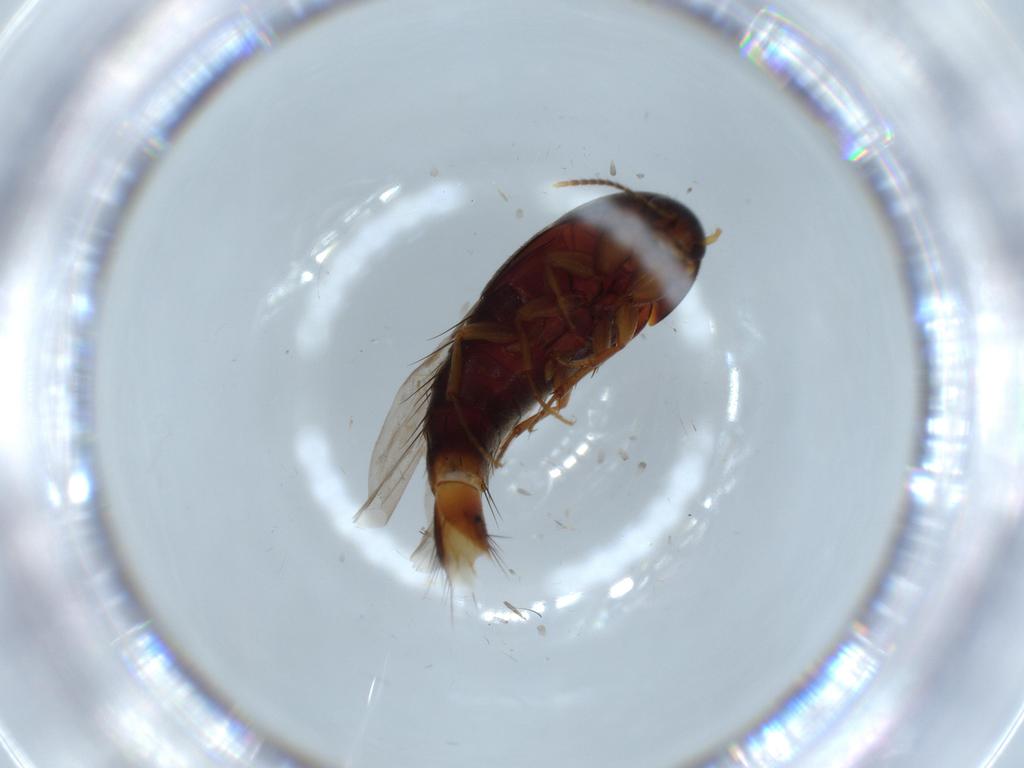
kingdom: Animalia
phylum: Arthropoda
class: Insecta
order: Coleoptera
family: Staphylinidae
